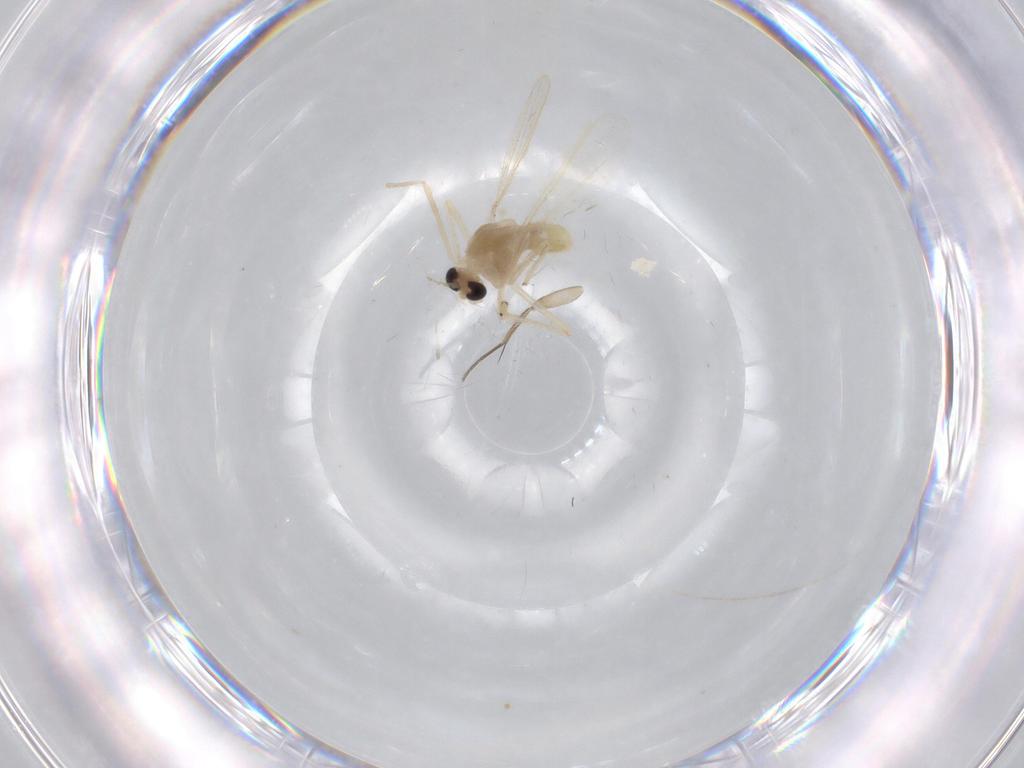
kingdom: Animalia
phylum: Arthropoda
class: Insecta
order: Diptera
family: Chironomidae
